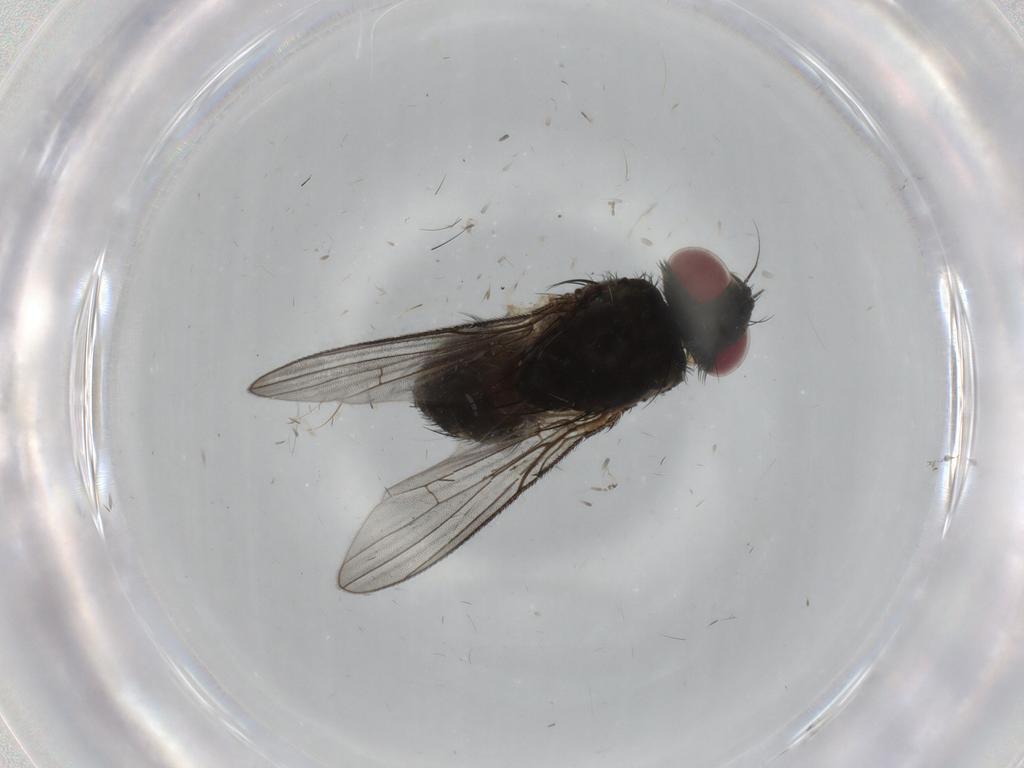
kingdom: Animalia
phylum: Arthropoda
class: Insecta
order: Diptera
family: Muscidae
